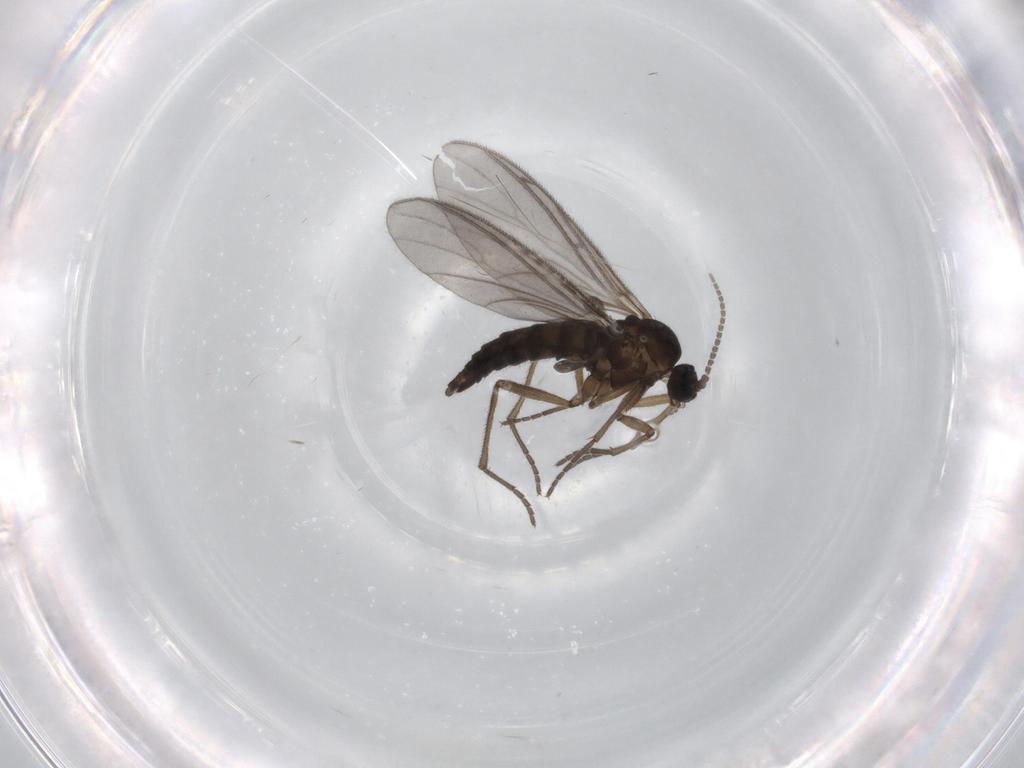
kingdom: Animalia
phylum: Arthropoda
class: Insecta
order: Diptera
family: Sciaridae
